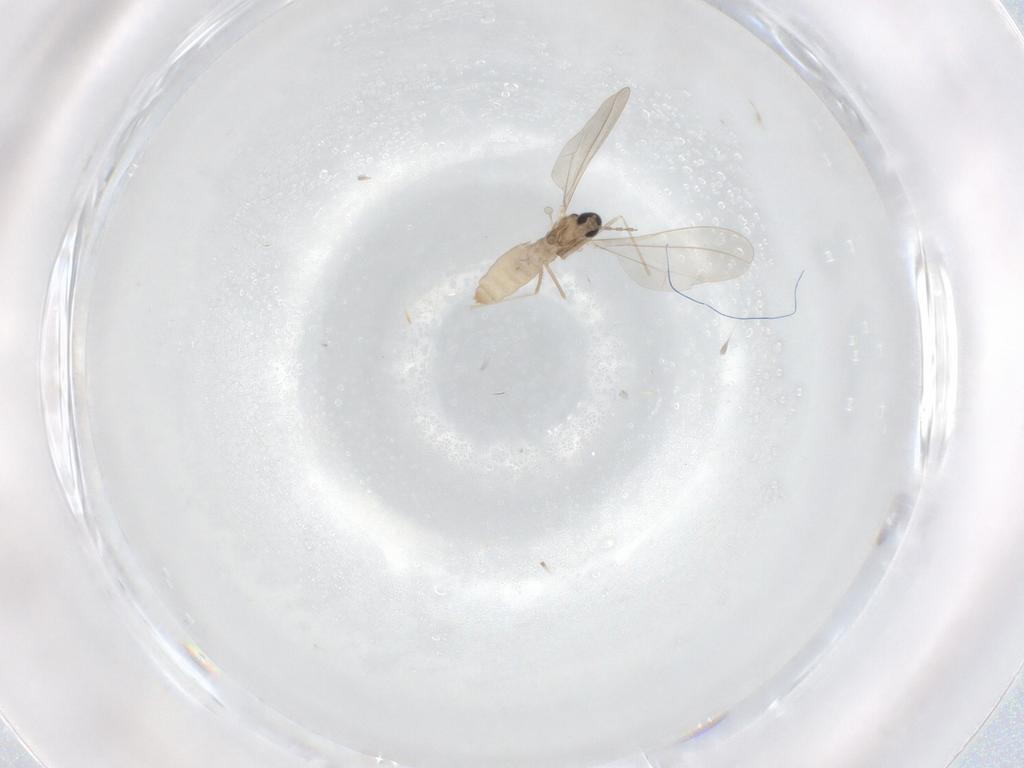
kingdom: Animalia
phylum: Arthropoda
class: Insecta
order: Diptera
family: Cecidomyiidae
